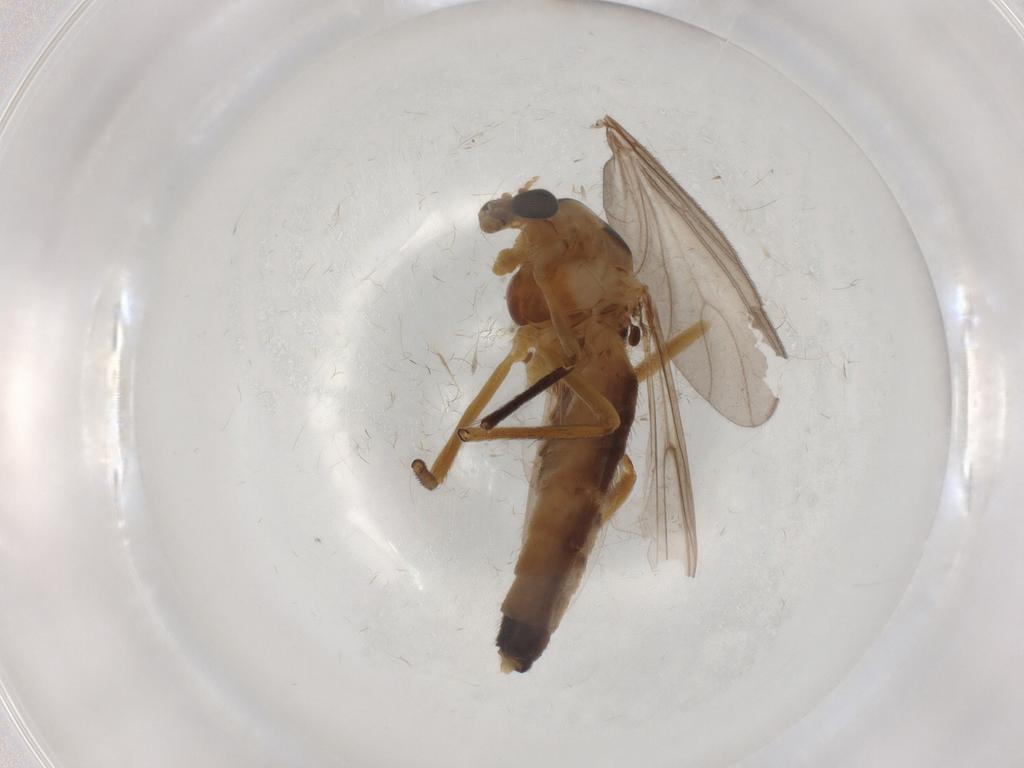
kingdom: Animalia
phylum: Arthropoda
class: Insecta
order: Diptera
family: Chironomidae
